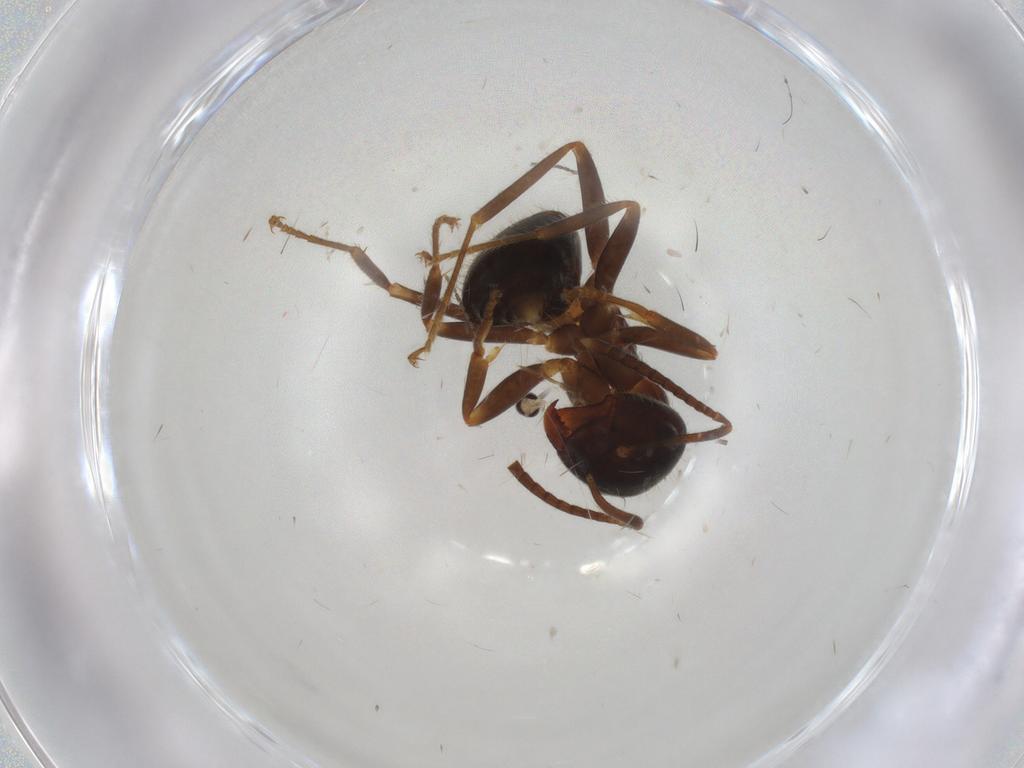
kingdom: Animalia
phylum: Arthropoda
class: Insecta
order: Hymenoptera
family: Formicidae
